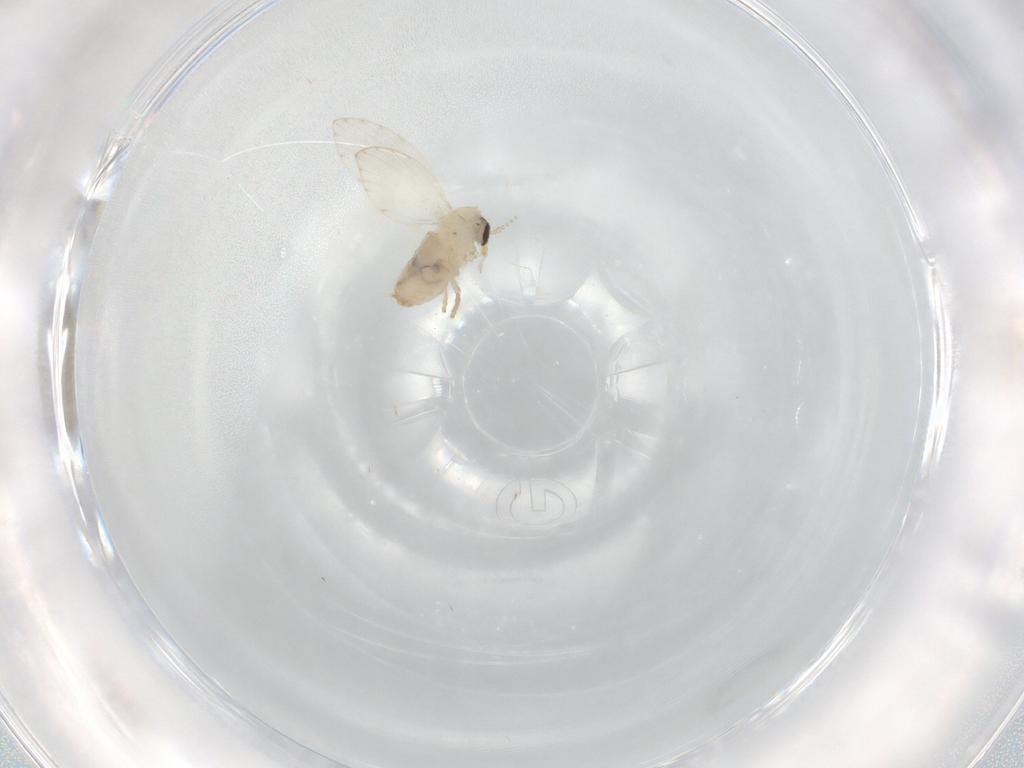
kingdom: Animalia
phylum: Arthropoda
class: Insecta
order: Diptera
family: Psychodidae
